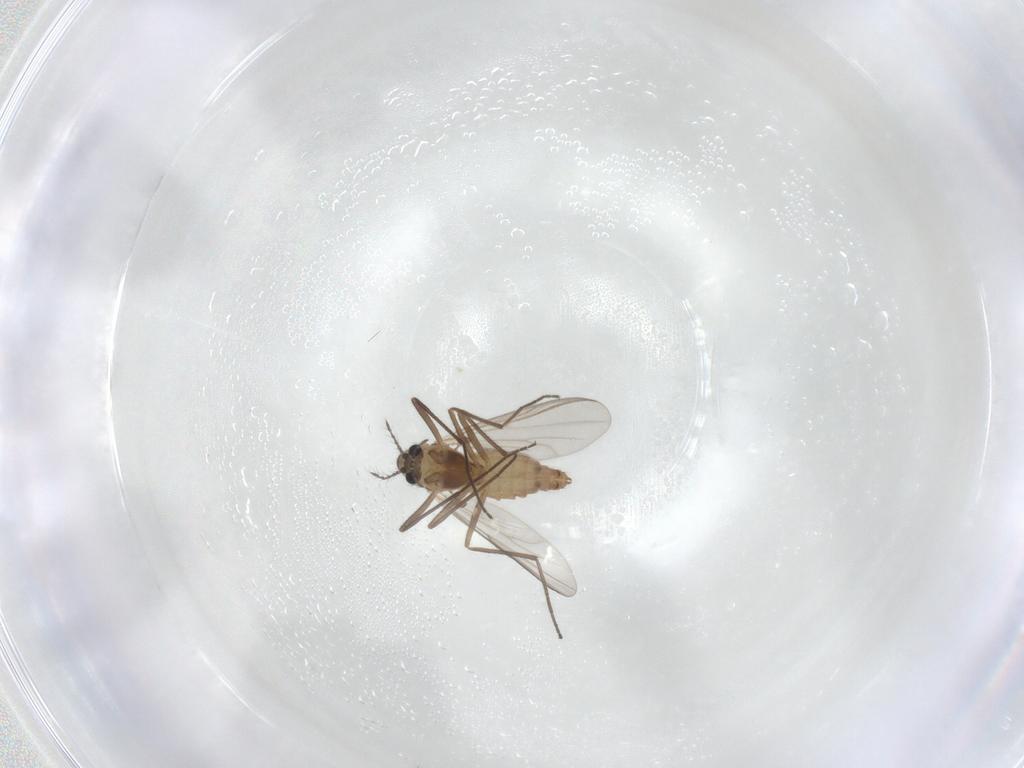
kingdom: Animalia
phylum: Arthropoda
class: Insecta
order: Diptera
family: Chironomidae
